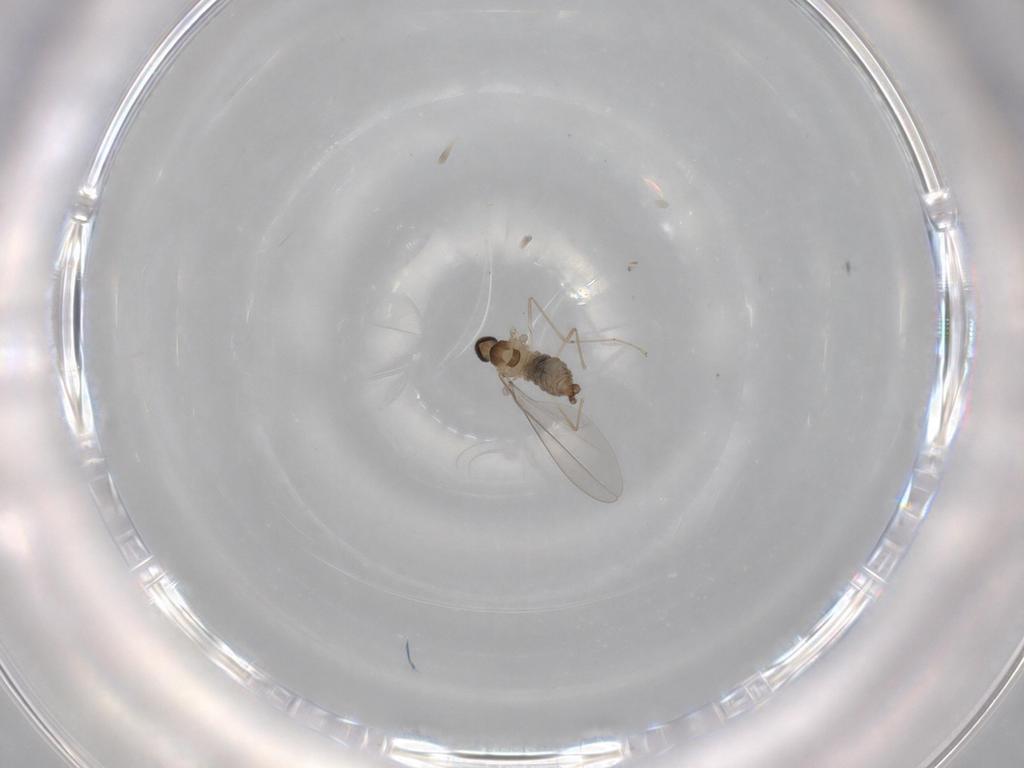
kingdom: Animalia
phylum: Arthropoda
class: Insecta
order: Diptera
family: Cecidomyiidae
